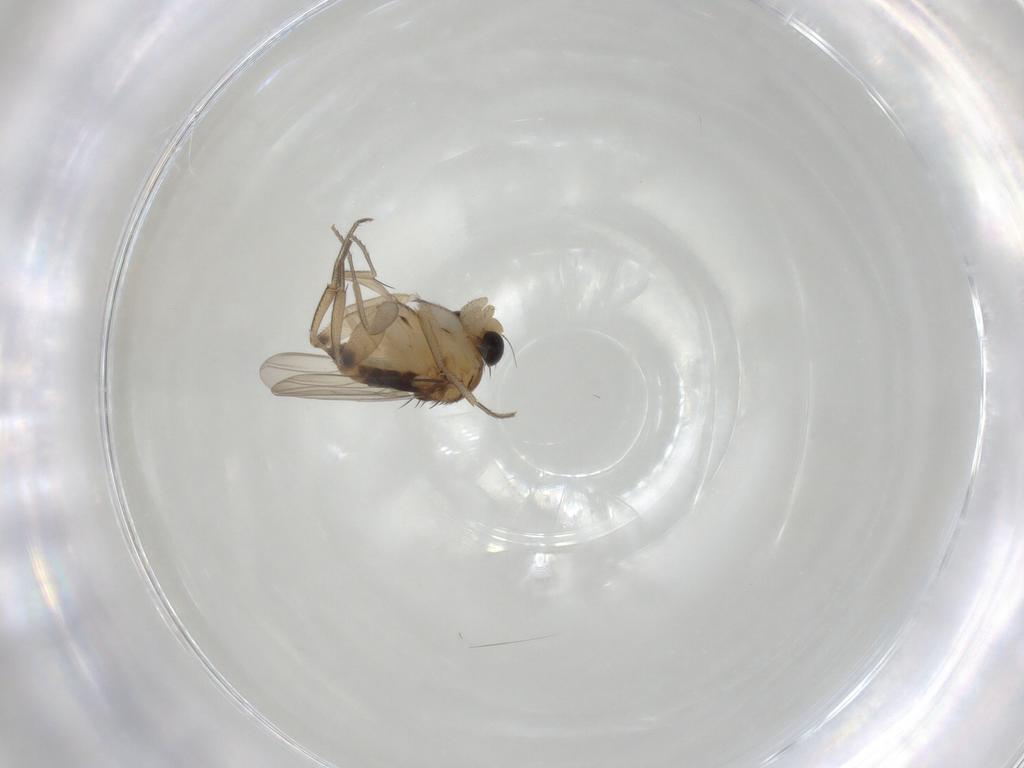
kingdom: Animalia
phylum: Arthropoda
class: Insecta
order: Diptera
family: Phoridae
